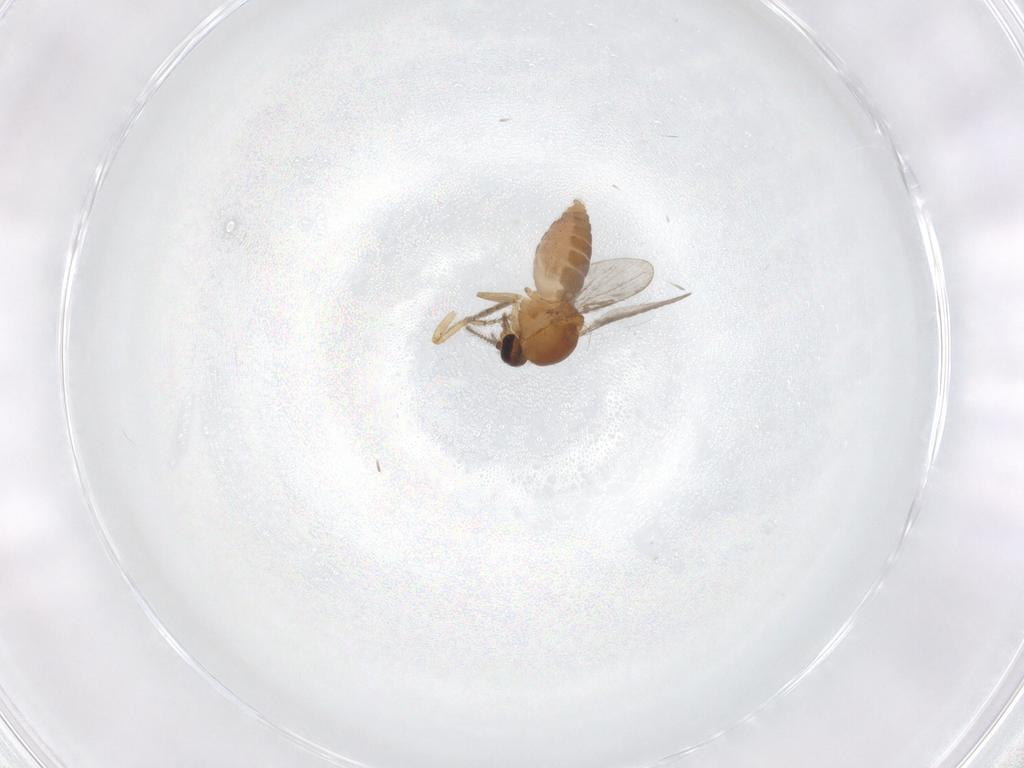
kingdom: Animalia
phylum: Arthropoda
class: Insecta
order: Diptera
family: Ceratopogonidae
